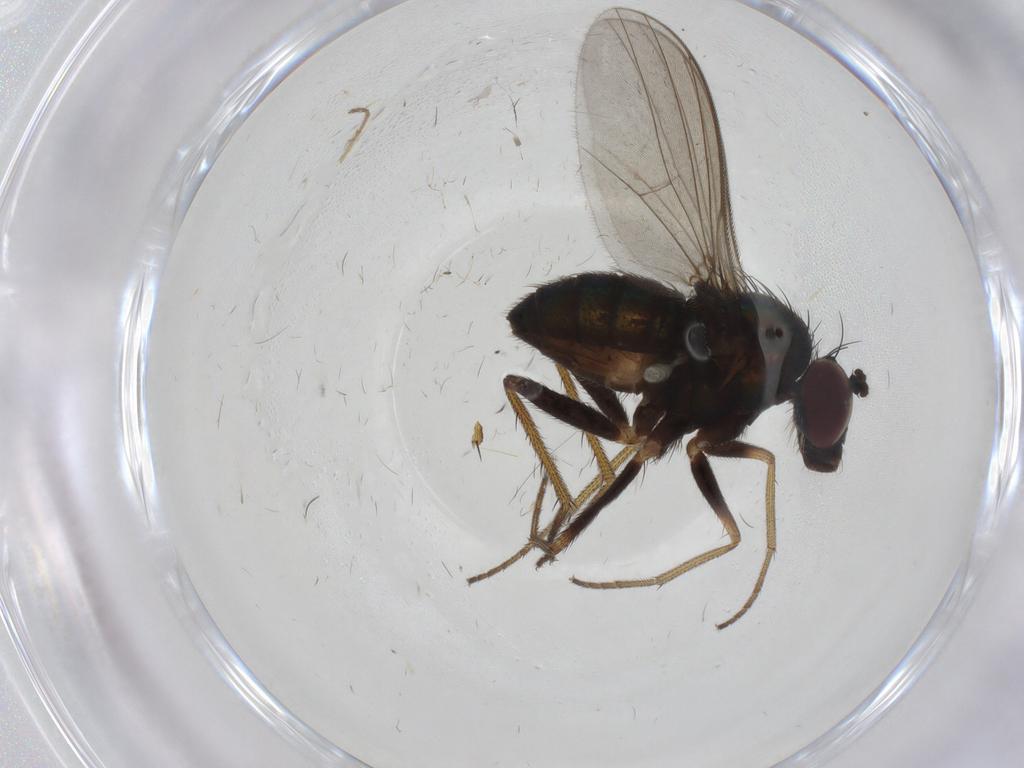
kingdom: Animalia
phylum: Arthropoda
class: Insecta
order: Diptera
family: Dolichopodidae
